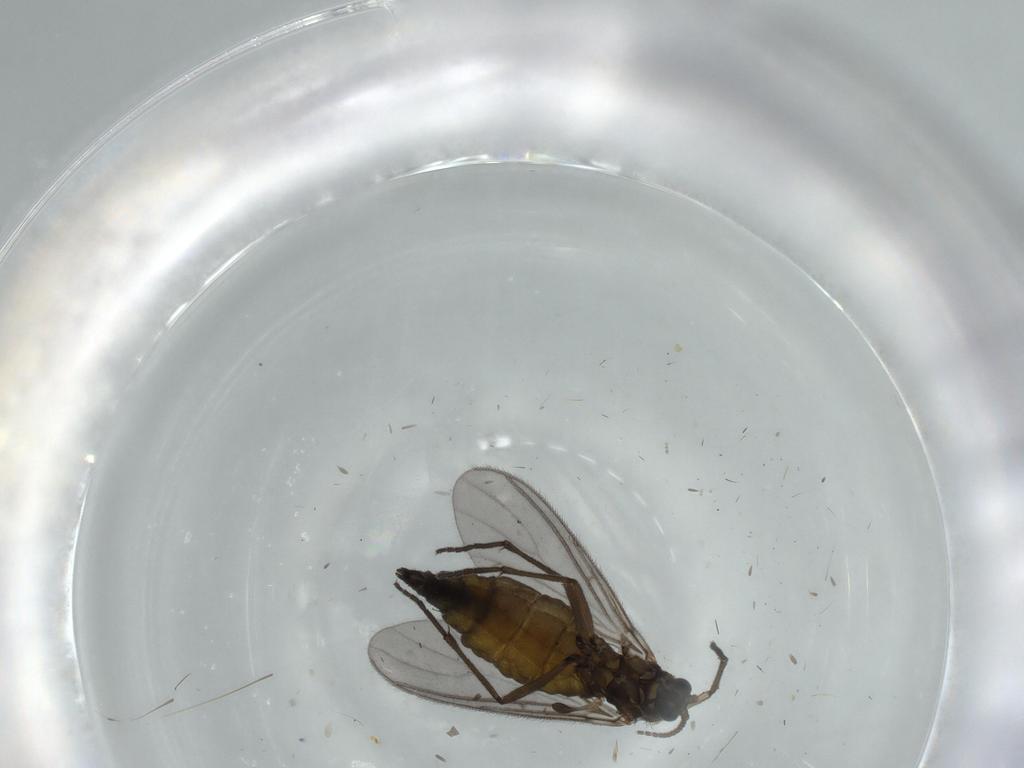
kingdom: Animalia
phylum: Arthropoda
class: Insecta
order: Diptera
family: Sciaridae
